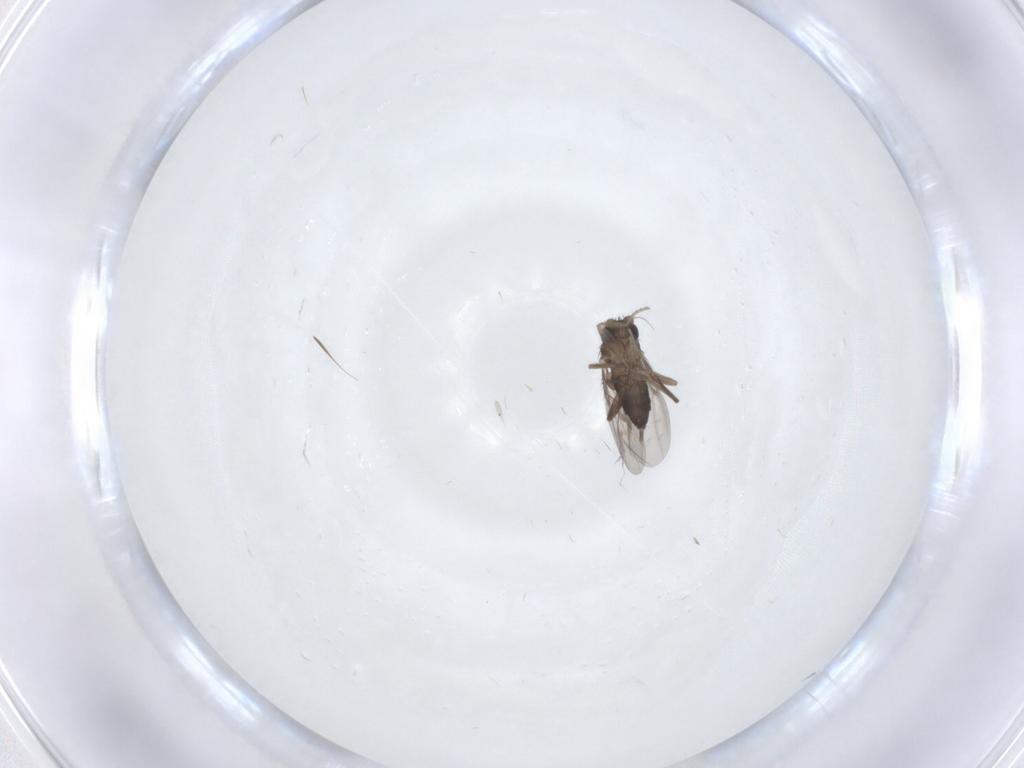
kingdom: Animalia
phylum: Arthropoda
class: Insecta
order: Diptera
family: Phoridae
